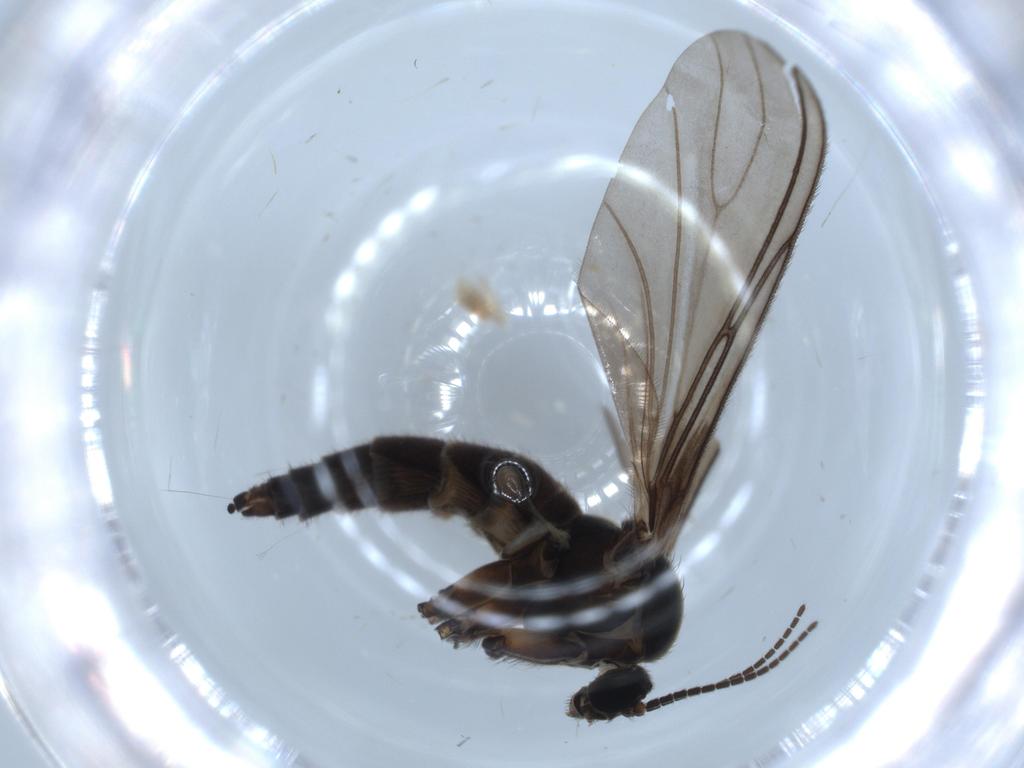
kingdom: Animalia
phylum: Arthropoda
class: Insecta
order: Diptera
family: Sciaridae
